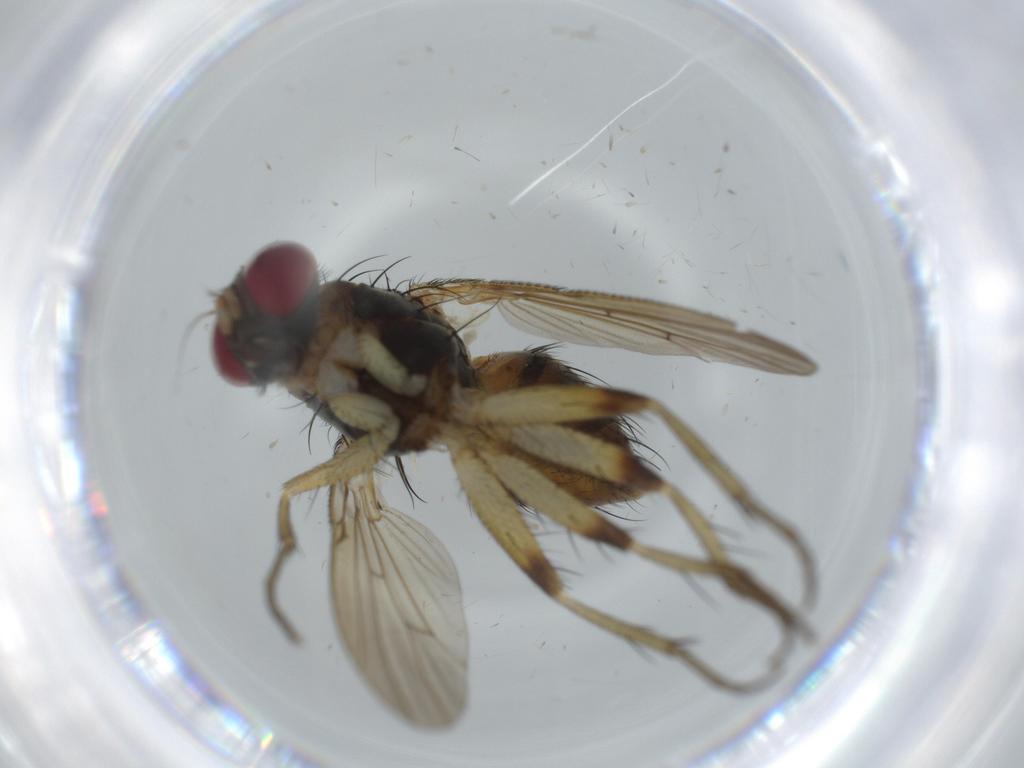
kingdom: Animalia
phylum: Arthropoda
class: Insecta
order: Diptera
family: Muscidae
